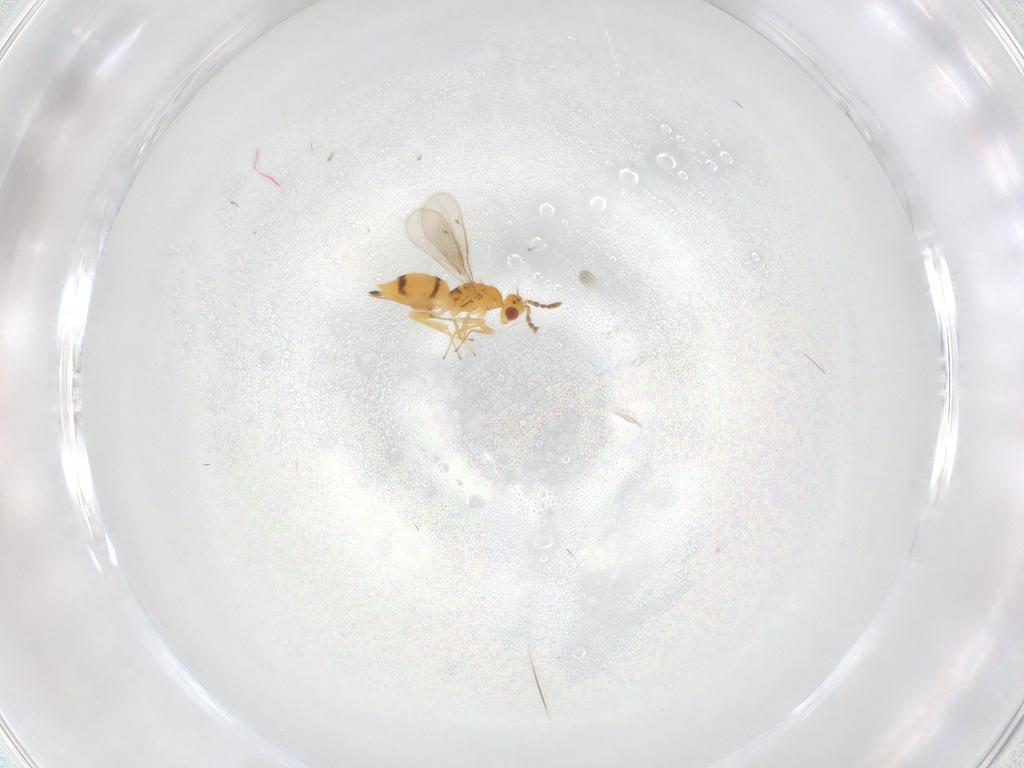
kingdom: Animalia
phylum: Arthropoda
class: Insecta
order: Hymenoptera
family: Eulophidae
